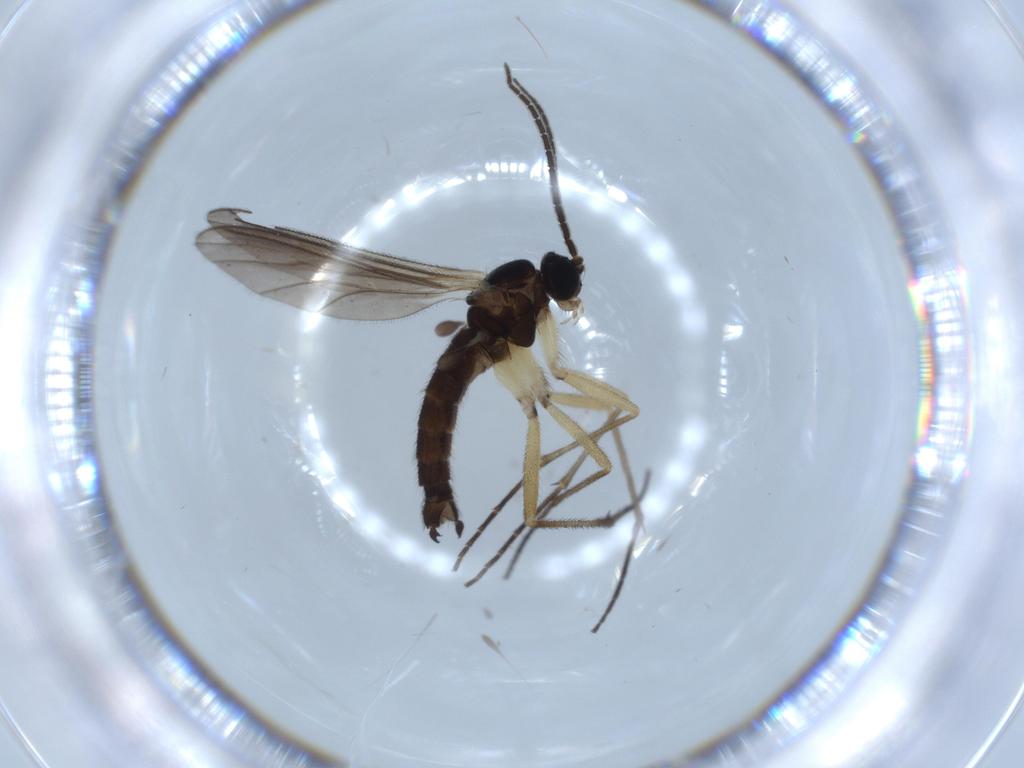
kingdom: Animalia
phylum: Arthropoda
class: Insecta
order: Diptera
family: Sciaridae
